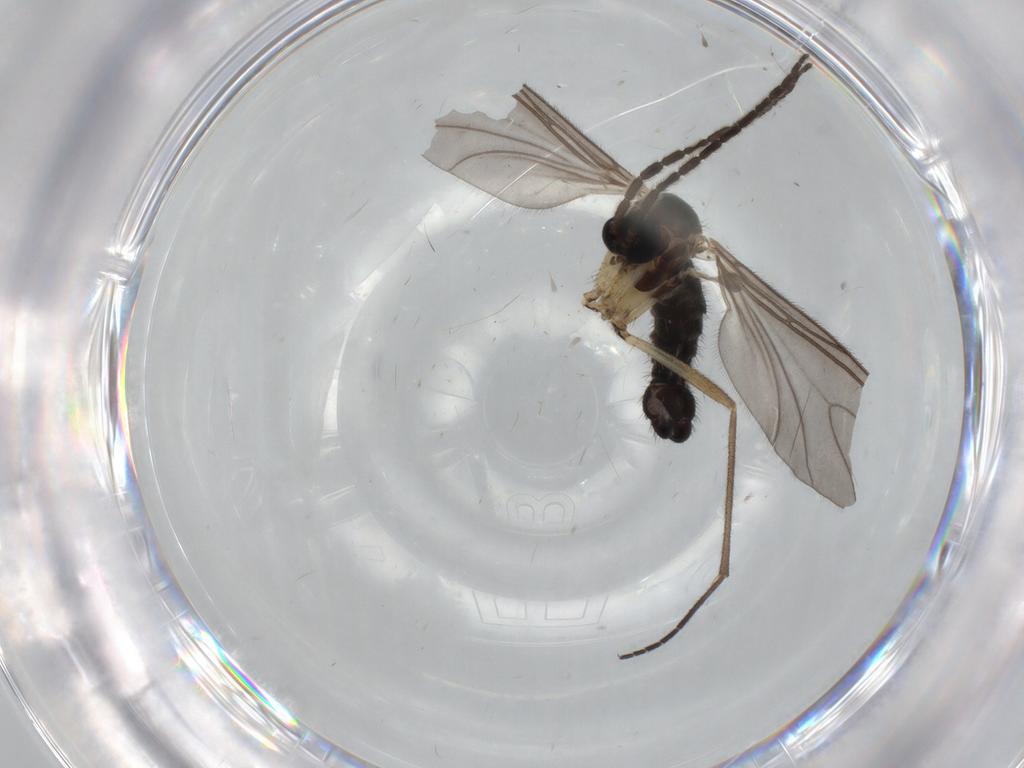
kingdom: Animalia
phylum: Arthropoda
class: Insecta
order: Diptera
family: Sciaridae
